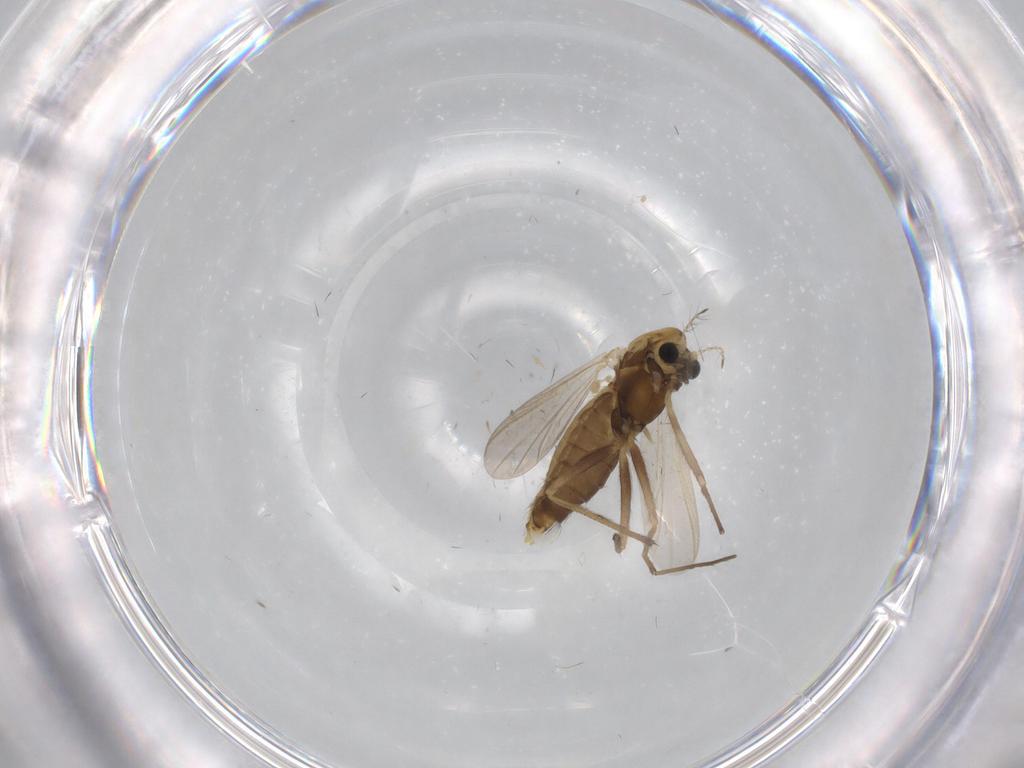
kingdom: Animalia
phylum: Arthropoda
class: Insecta
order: Diptera
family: Chironomidae
